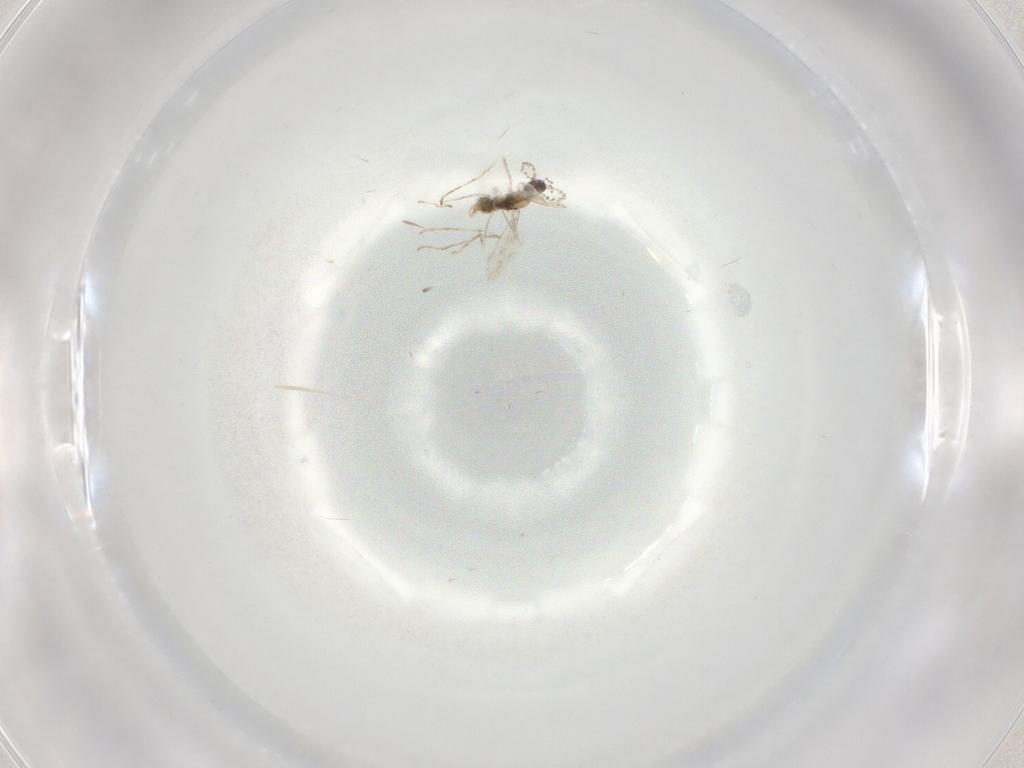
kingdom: Animalia
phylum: Arthropoda
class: Insecta
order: Diptera
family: Cecidomyiidae
